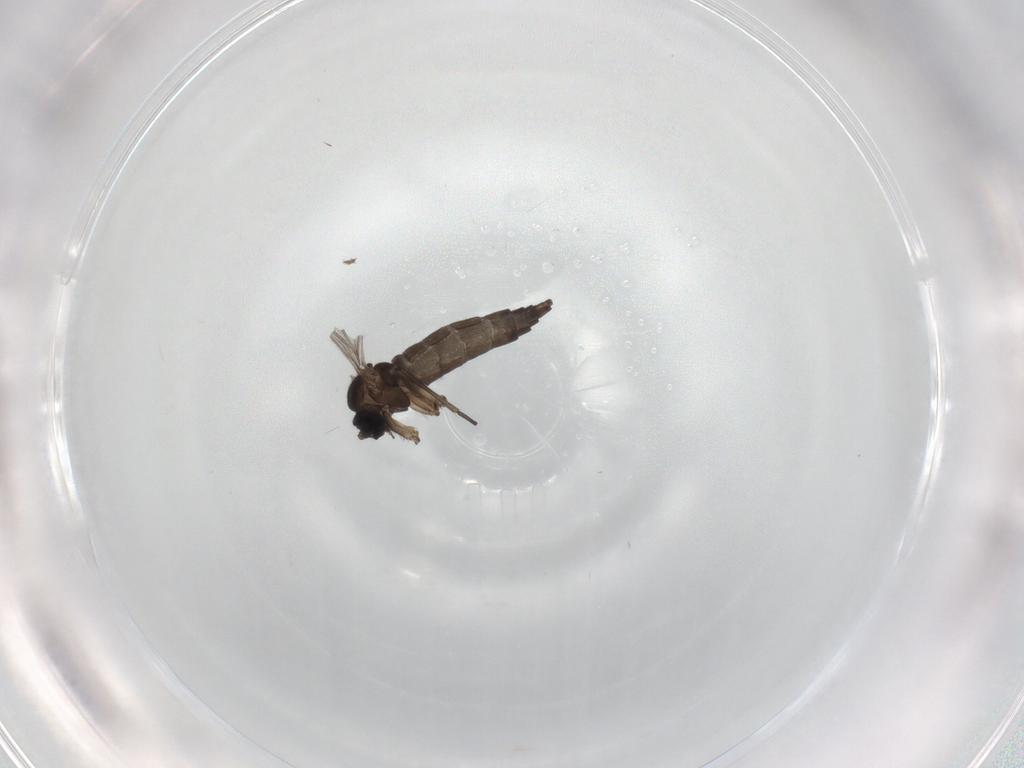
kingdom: Animalia
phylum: Arthropoda
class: Insecta
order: Diptera
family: Sciaridae
